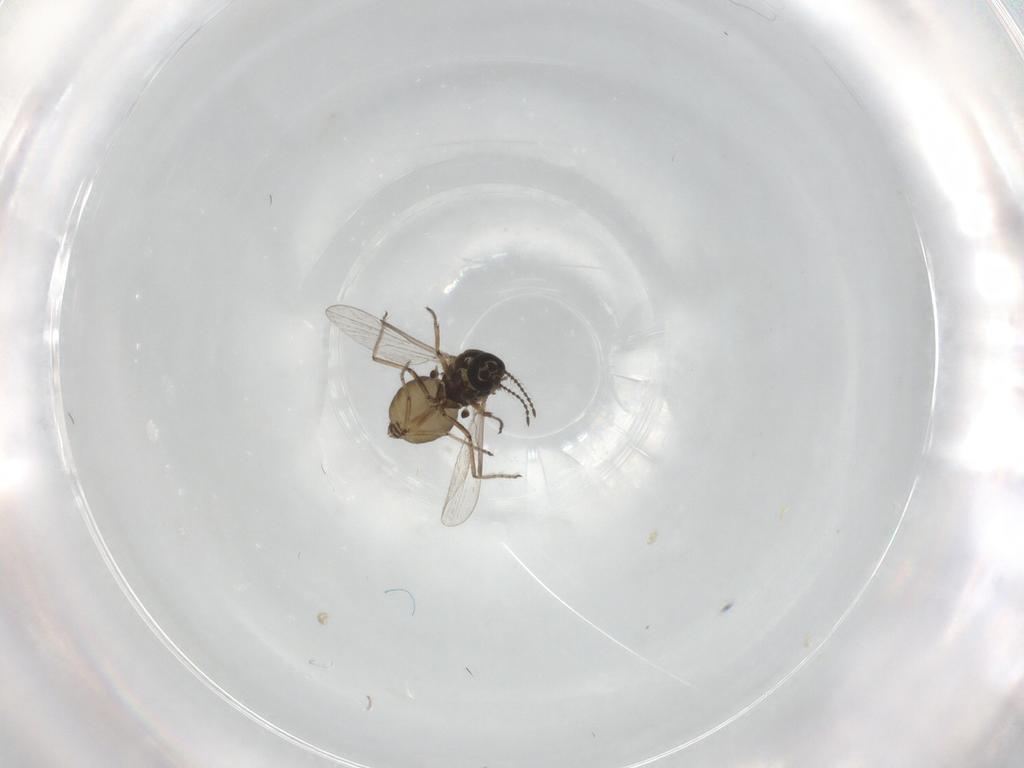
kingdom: Animalia
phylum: Arthropoda
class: Insecta
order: Diptera
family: Ceratopogonidae
